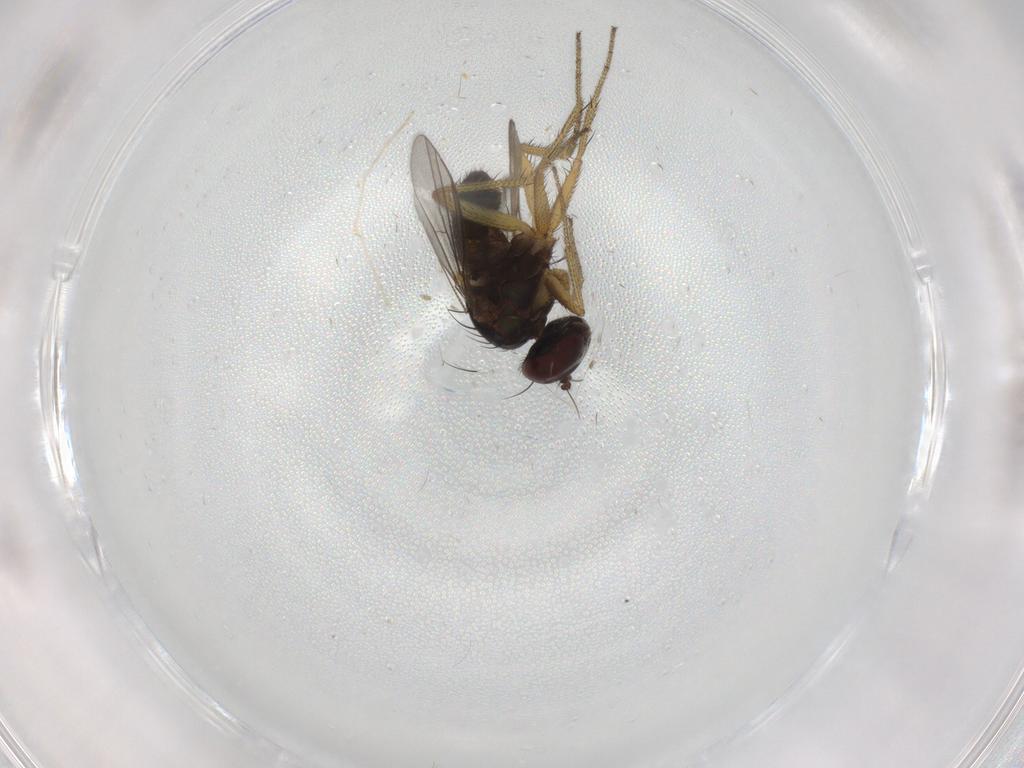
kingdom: Animalia
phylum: Arthropoda
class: Insecta
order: Diptera
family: Dolichopodidae
